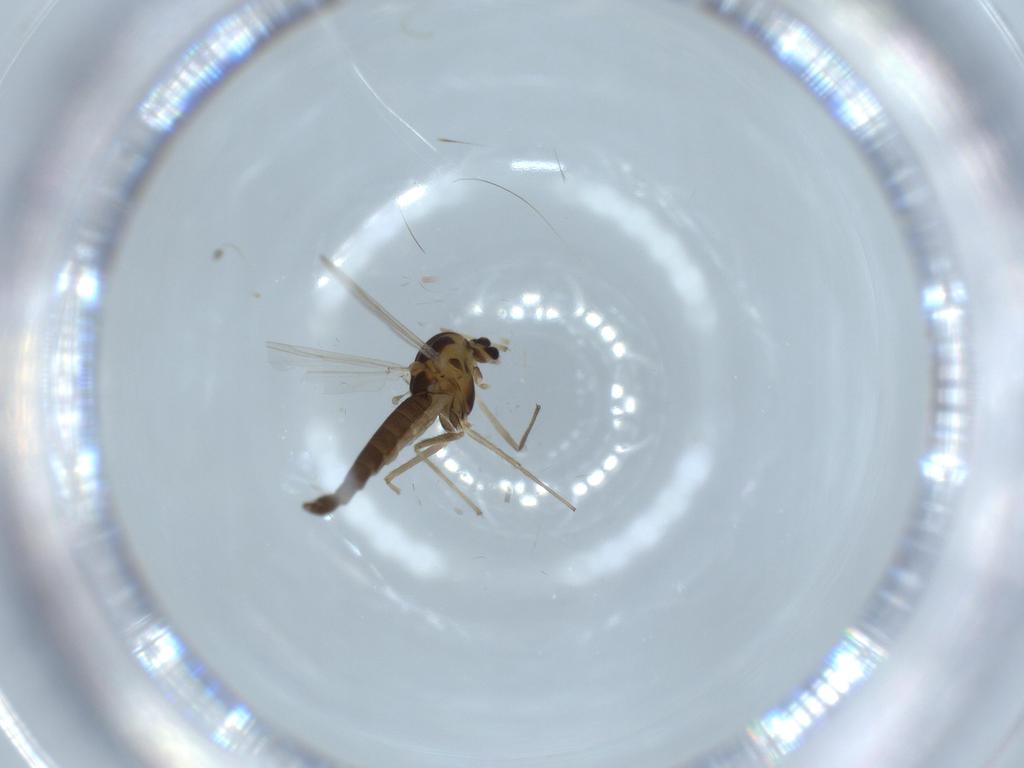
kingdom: Animalia
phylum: Arthropoda
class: Insecta
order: Diptera
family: Chironomidae
